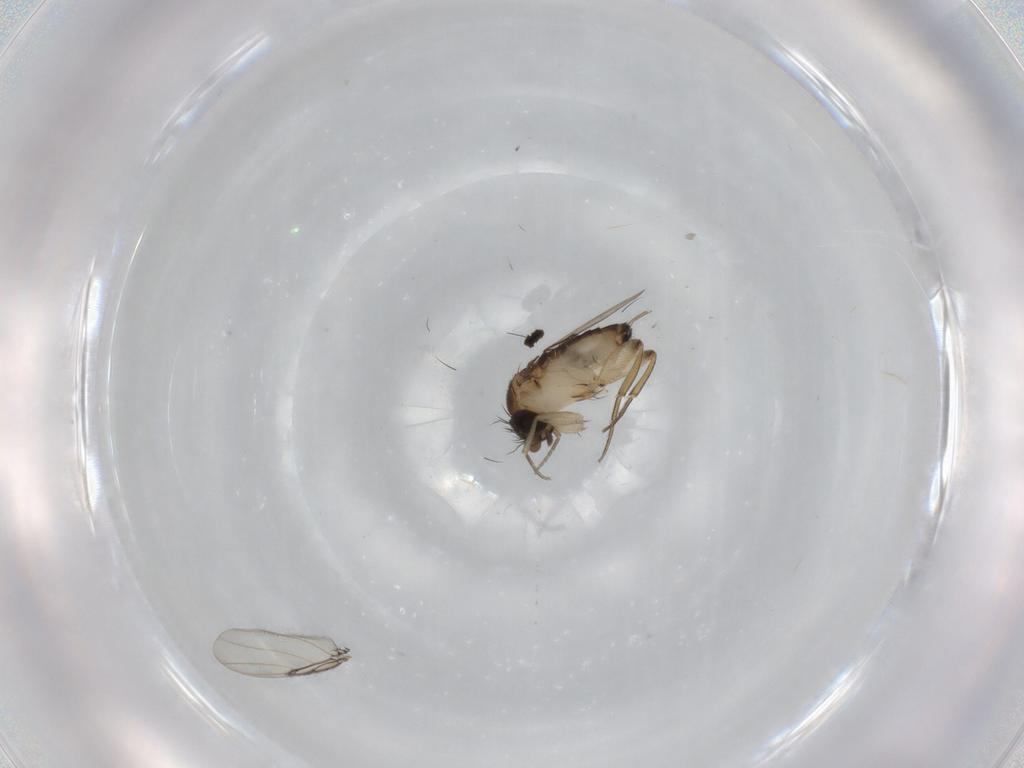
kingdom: Animalia
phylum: Arthropoda
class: Insecta
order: Diptera
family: Phoridae
